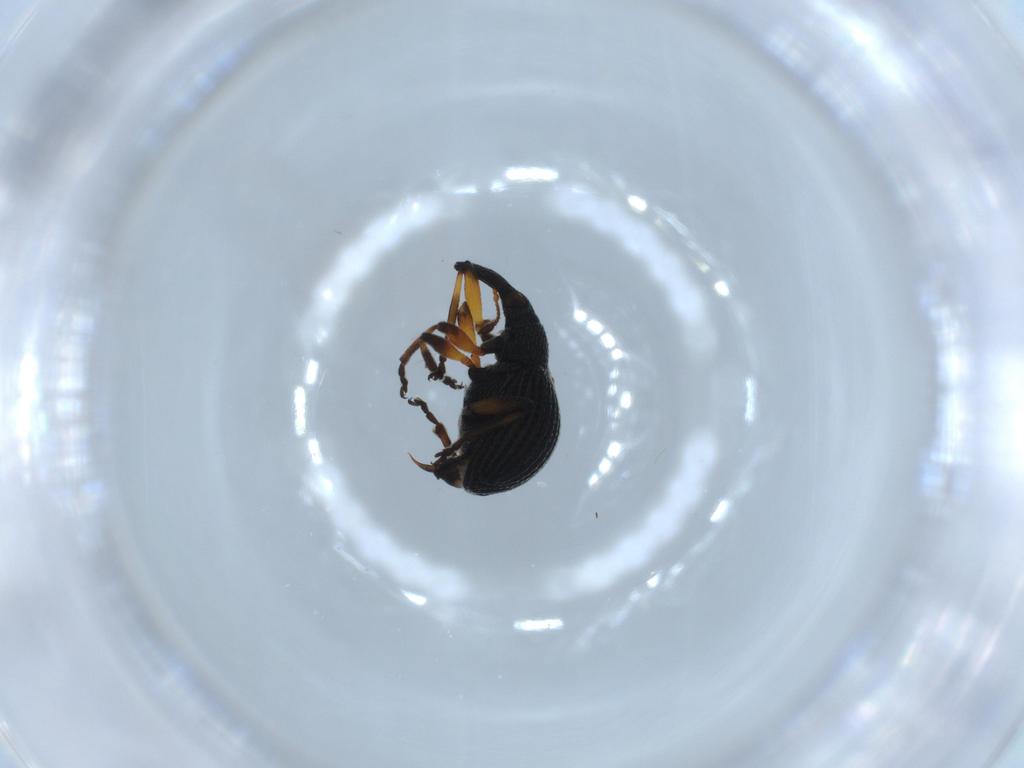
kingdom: Animalia
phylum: Arthropoda
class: Insecta
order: Coleoptera
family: Brentidae
